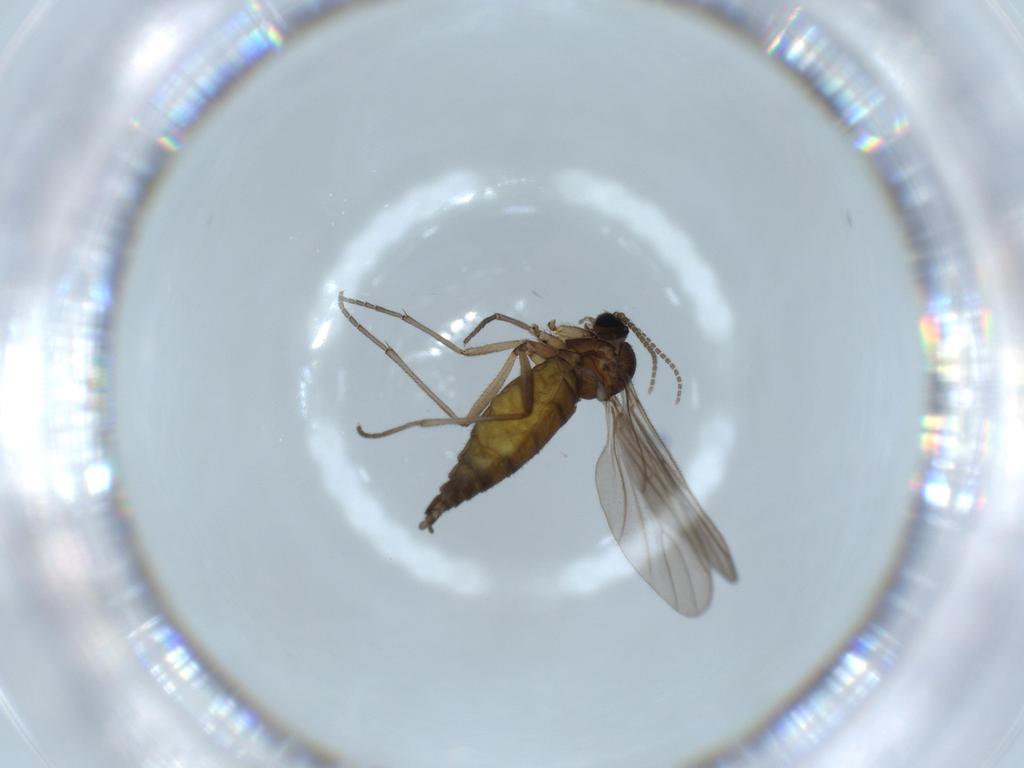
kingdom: Animalia
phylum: Arthropoda
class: Insecta
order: Diptera
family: Sciaridae
